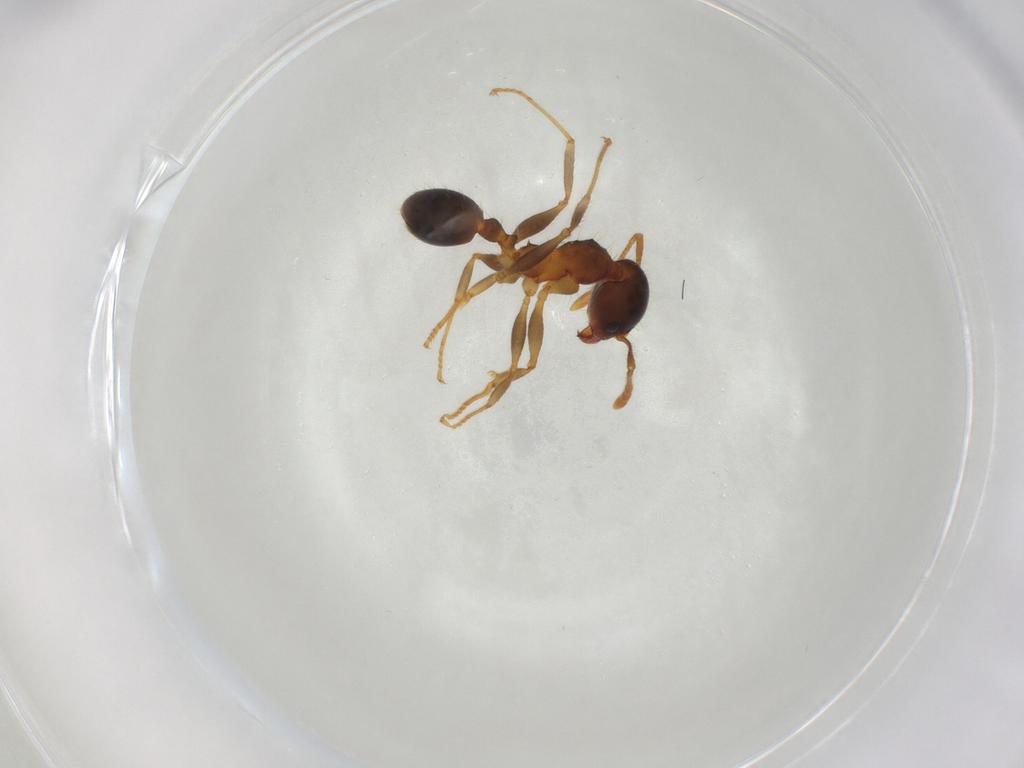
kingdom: Animalia
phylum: Arthropoda
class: Insecta
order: Hymenoptera
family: Formicidae
